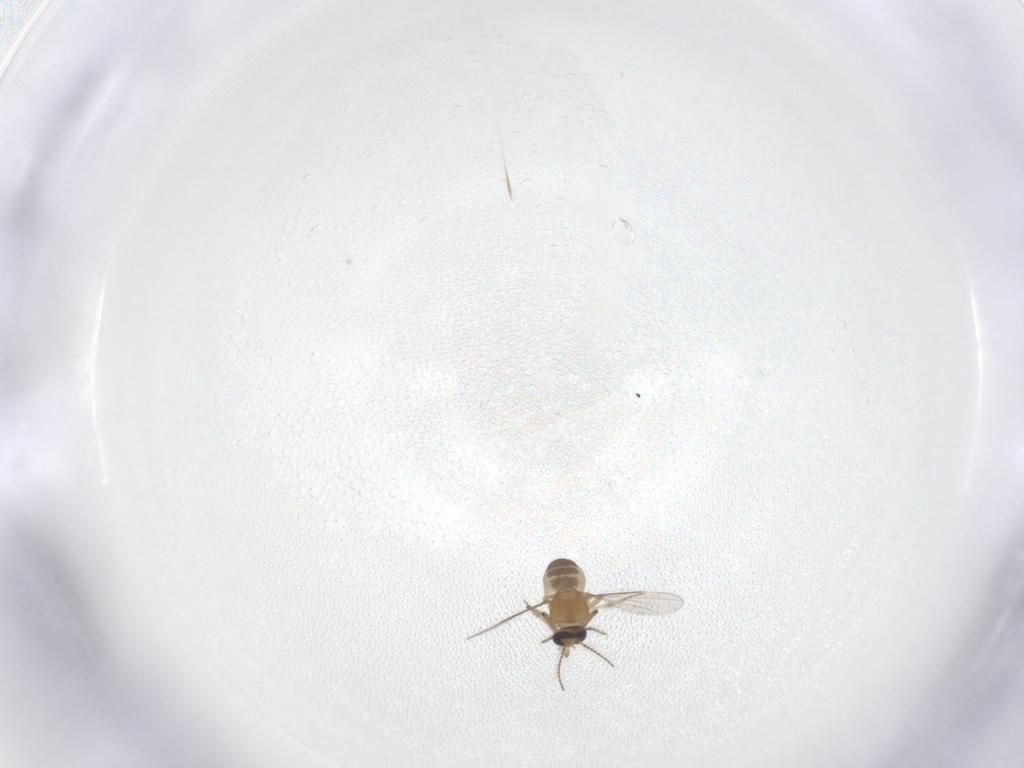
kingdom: Animalia
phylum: Arthropoda
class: Insecta
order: Diptera
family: Ceratopogonidae
